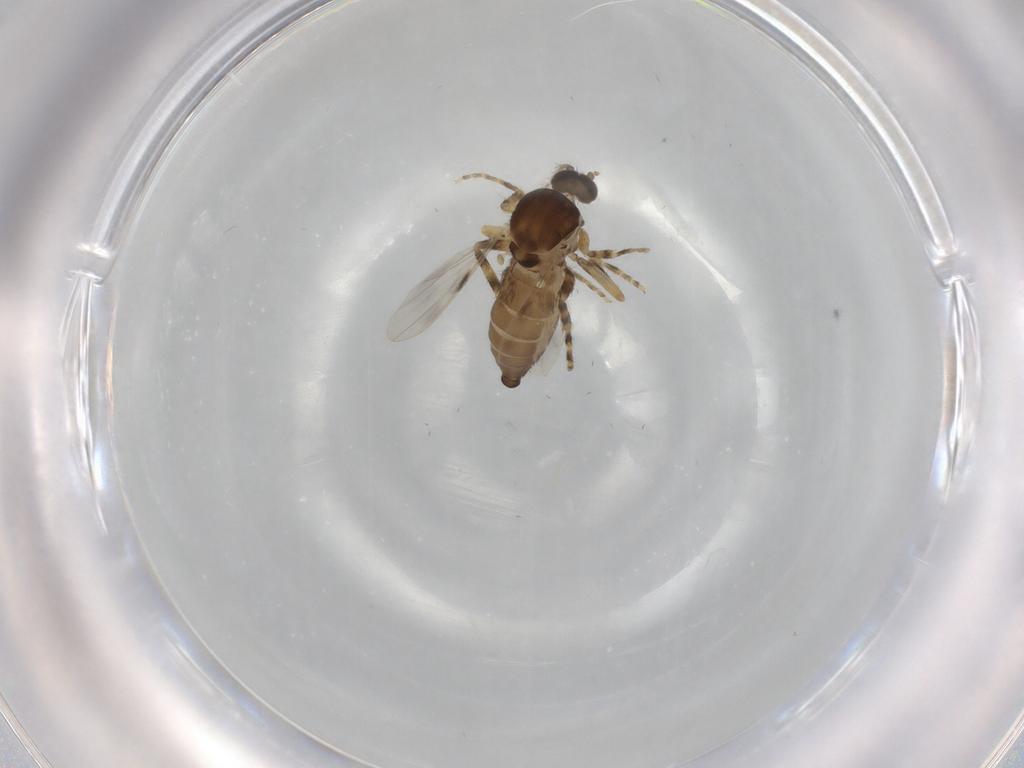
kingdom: Animalia
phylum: Arthropoda
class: Insecta
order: Diptera
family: Ceratopogonidae
